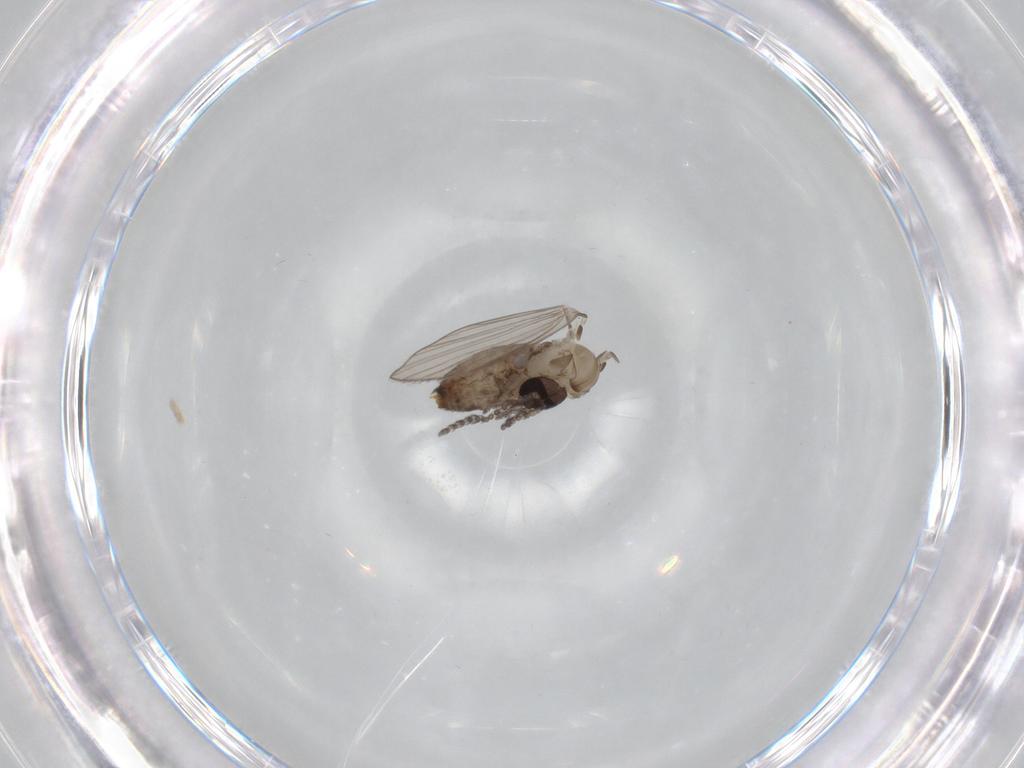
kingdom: Animalia
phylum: Arthropoda
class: Insecta
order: Diptera
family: Psychodidae
